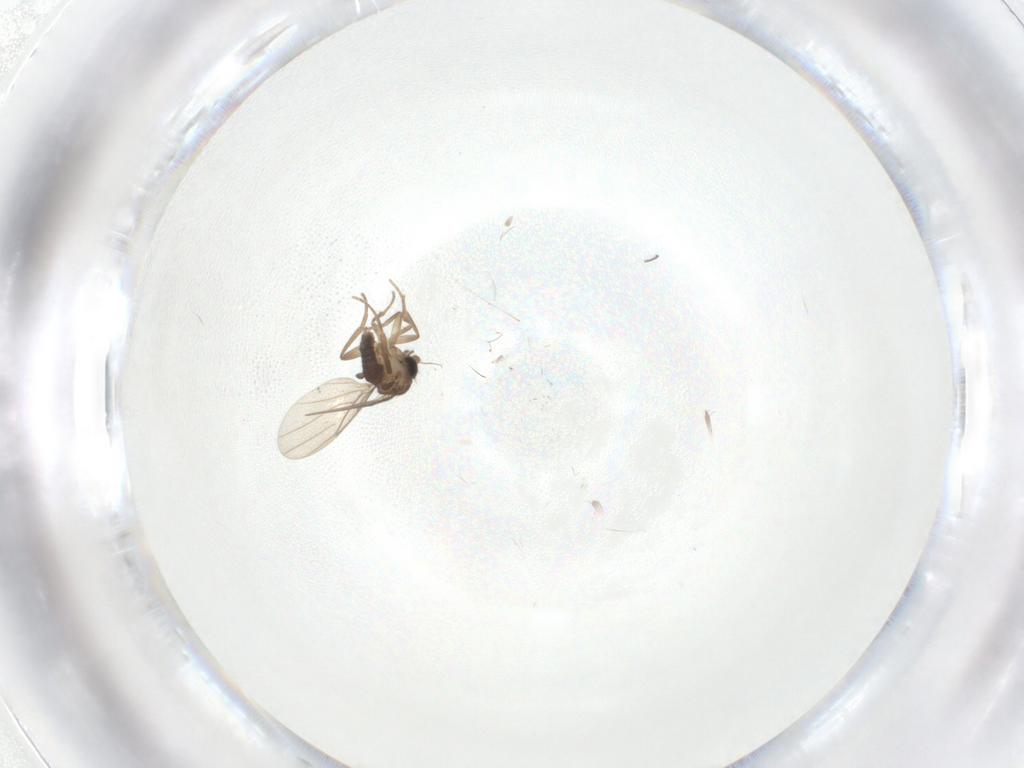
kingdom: Animalia
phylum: Arthropoda
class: Insecta
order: Diptera
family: Phoridae
